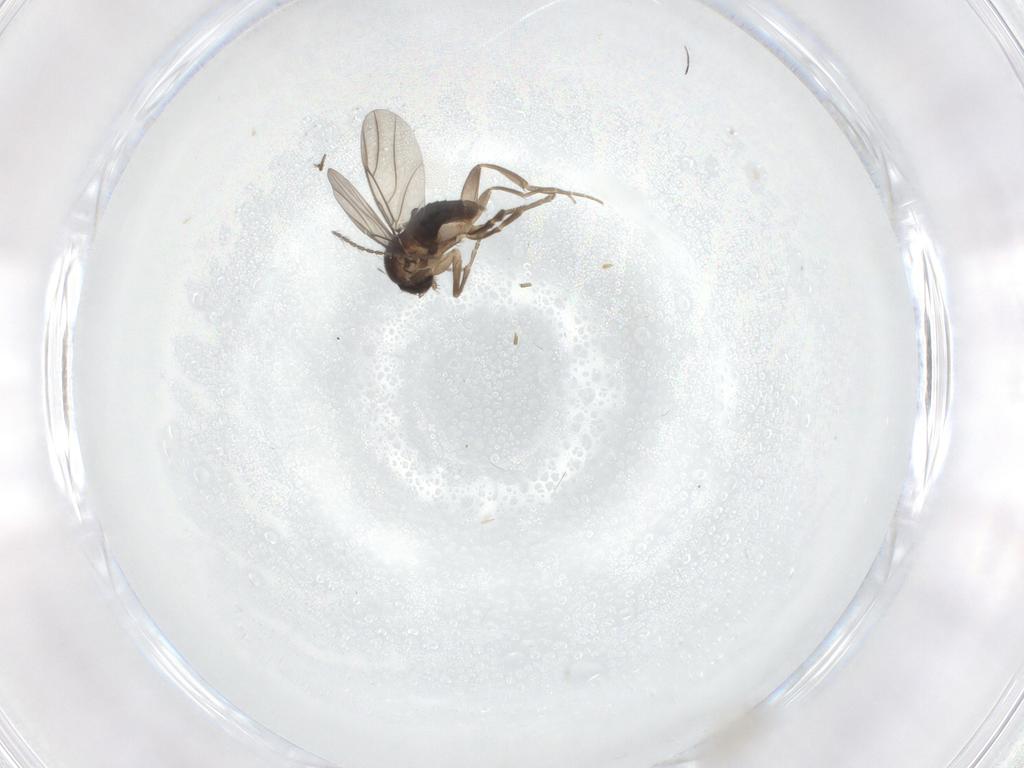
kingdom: Animalia
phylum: Arthropoda
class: Insecta
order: Diptera
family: Phoridae
